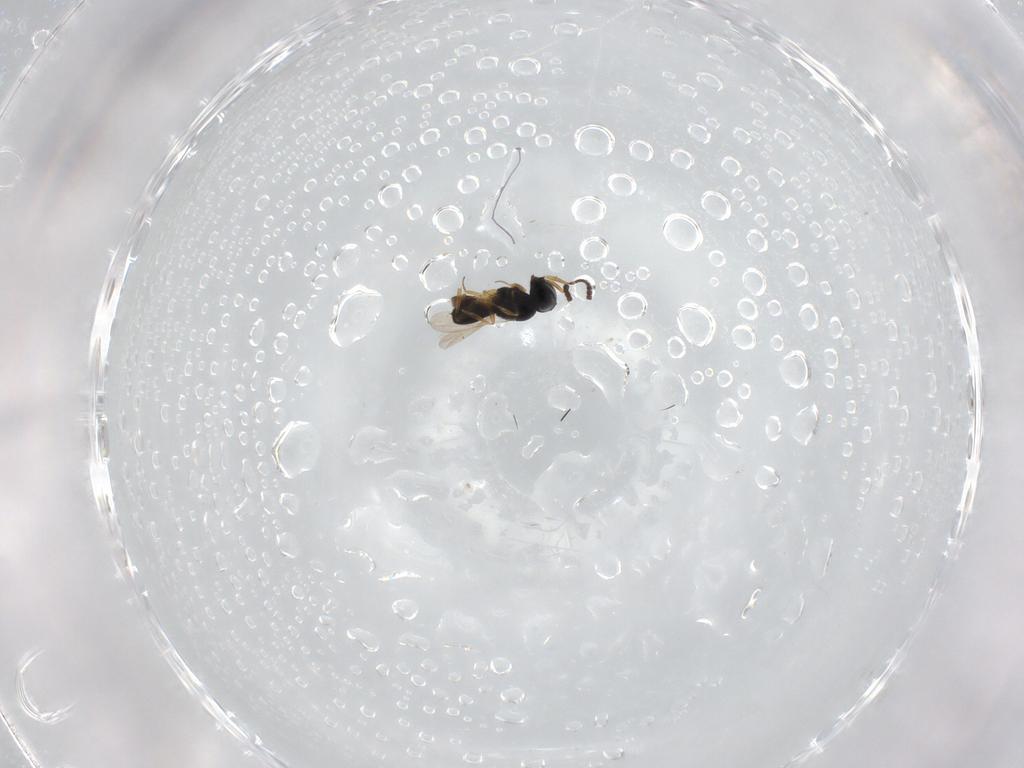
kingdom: Animalia
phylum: Arthropoda
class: Insecta
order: Hymenoptera
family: Scelionidae
